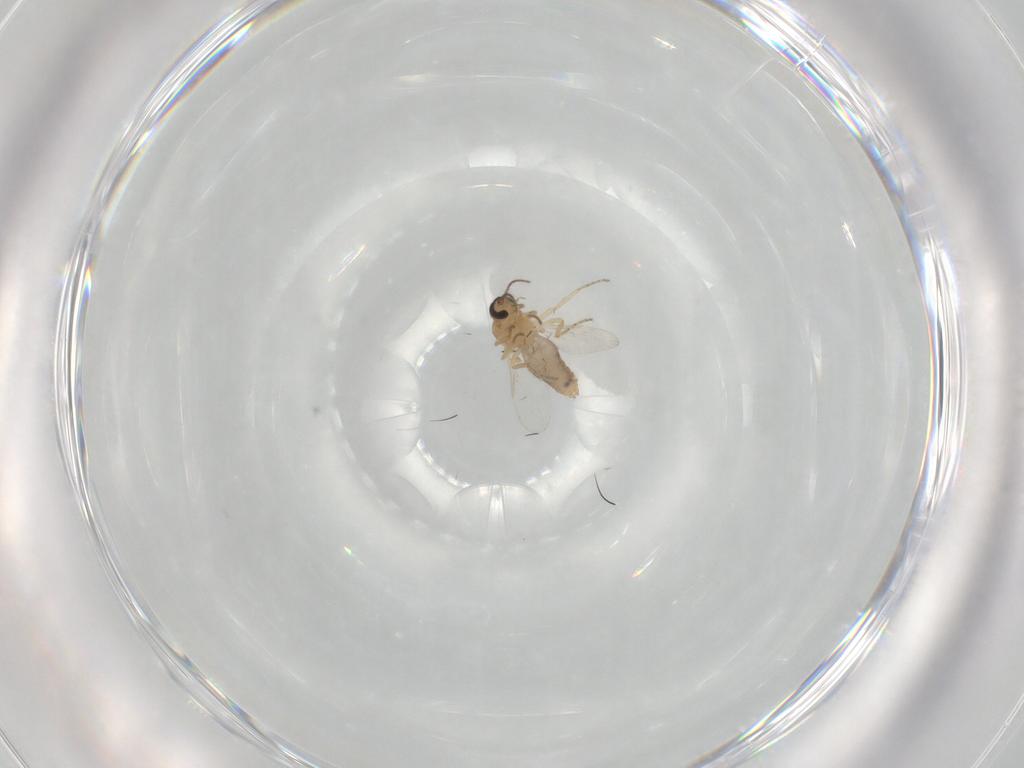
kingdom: Animalia
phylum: Arthropoda
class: Insecta
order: Diptera
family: Ceratopogonidae
